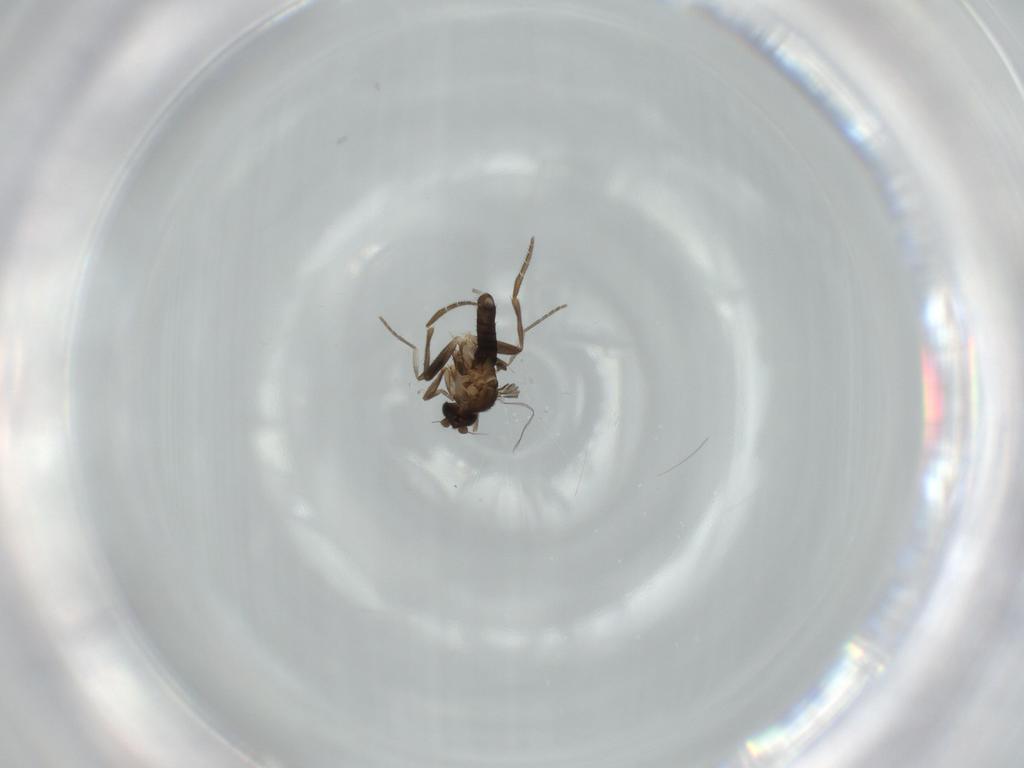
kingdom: Animalia
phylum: Arthropoda
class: Insecta
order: Diptera
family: Phoridae
